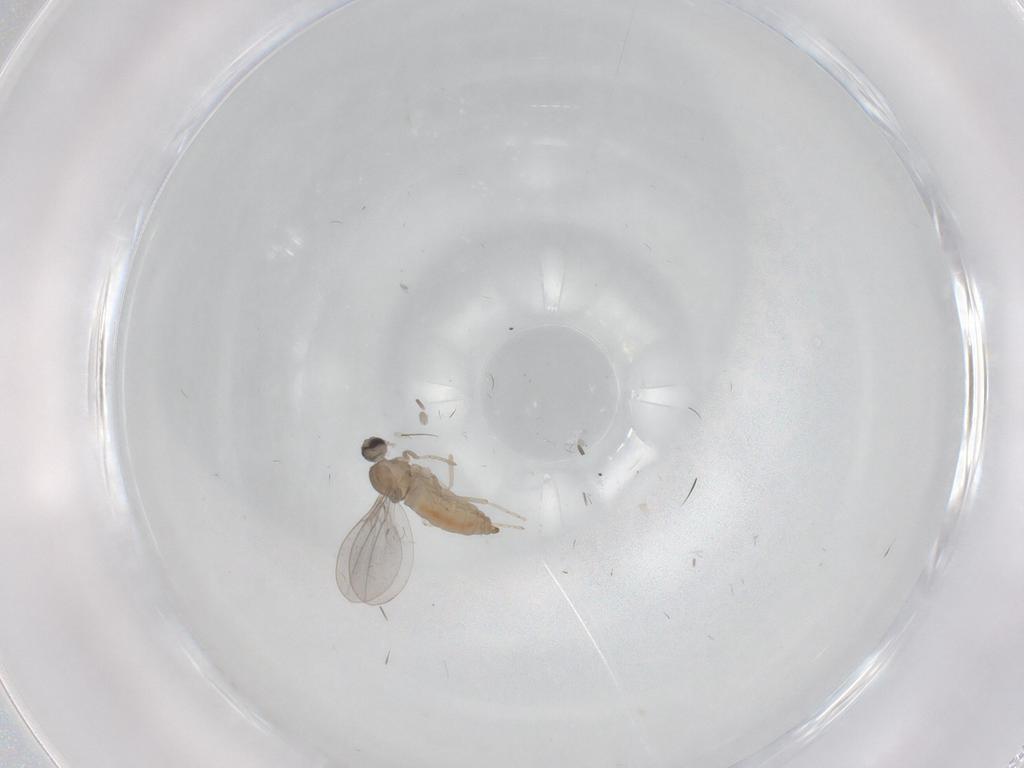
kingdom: Animalia
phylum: Arthropoda
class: Insecta
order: Diptera
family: Cecidomyiidae
